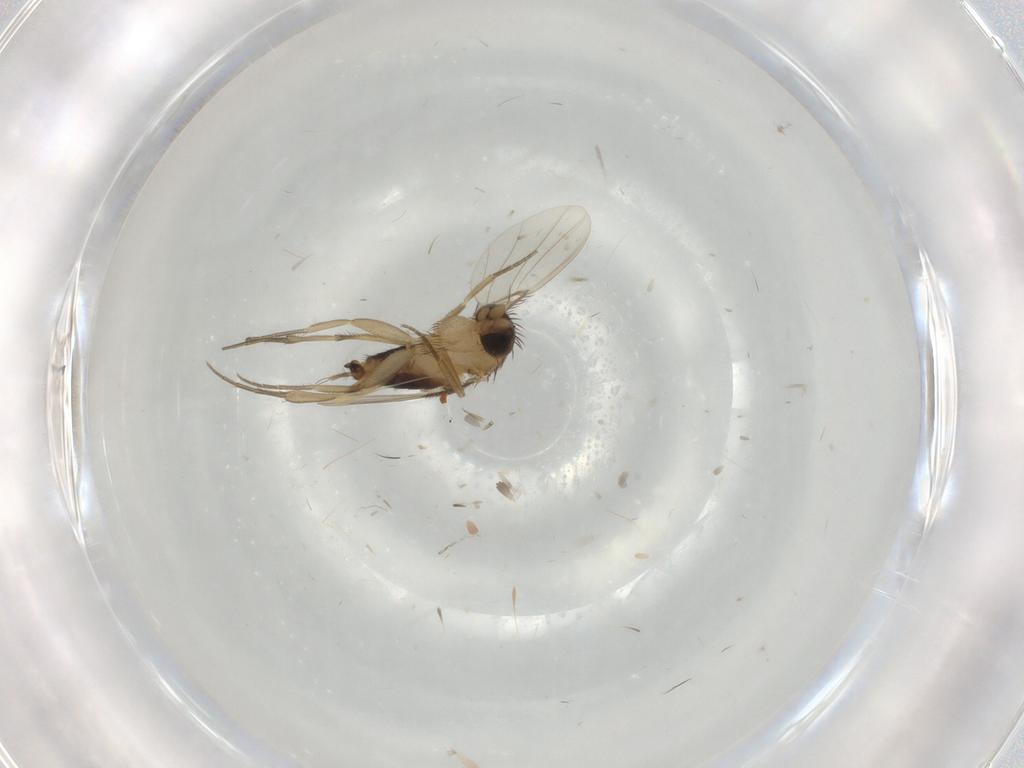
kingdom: Animalia
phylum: Arthropoda
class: Insecta
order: Diptera
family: Phoridae
